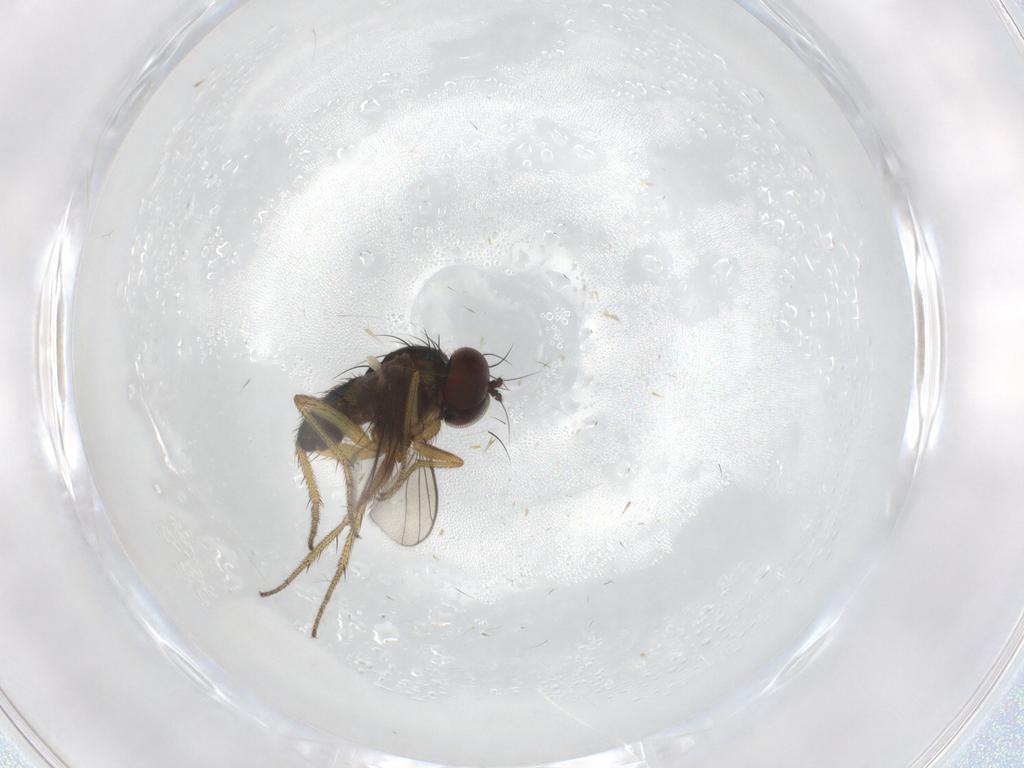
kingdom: Animalia
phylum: Arthropoda
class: Insecta
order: Diptera
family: Dolichopodidae
